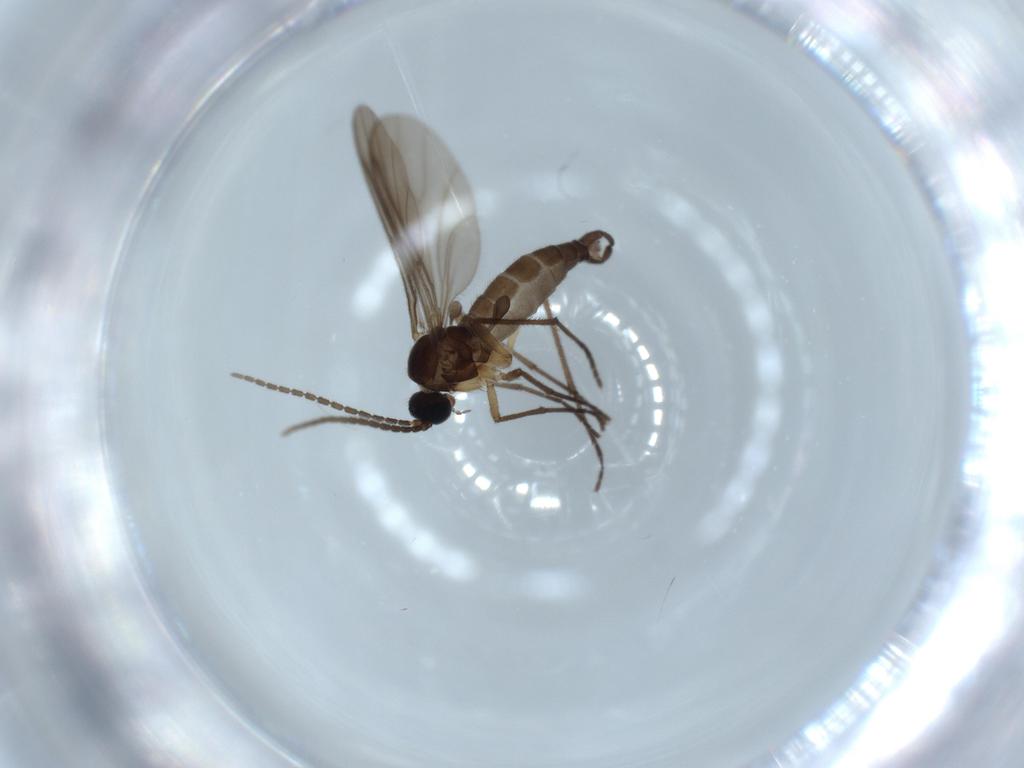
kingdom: Animalia
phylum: Arthropoda
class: Insecta
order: Diptera
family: Sciaridae
